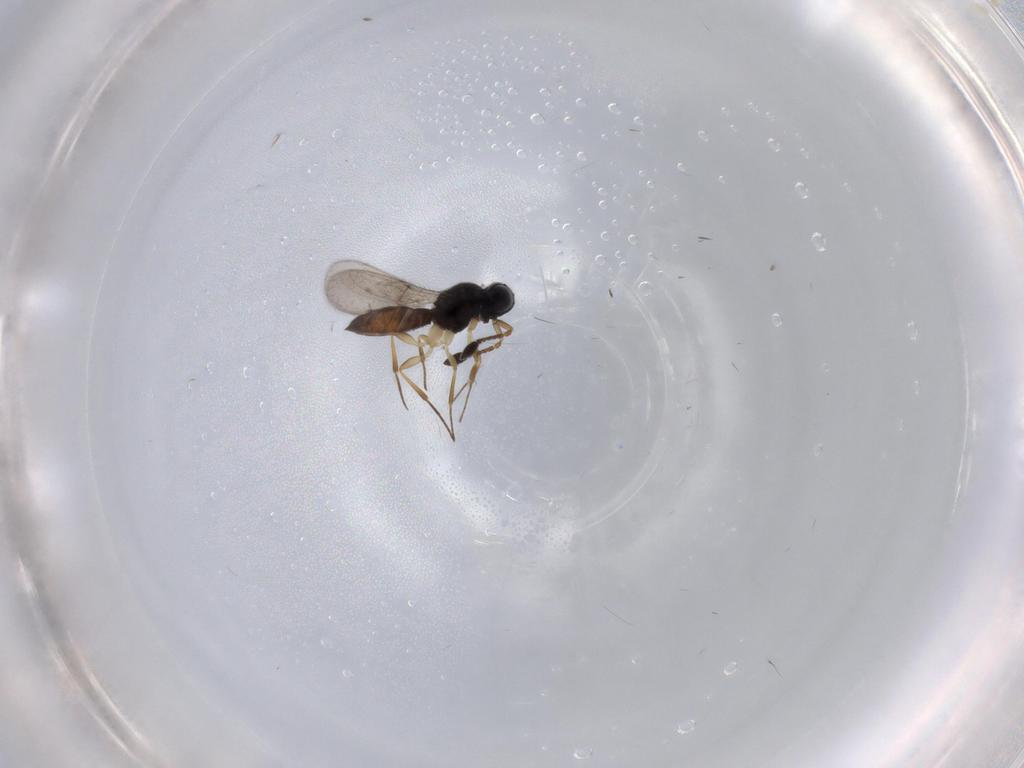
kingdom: Animalia
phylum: Arthropoda
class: Insecta
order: Hymenoptera
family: Scelionidae
